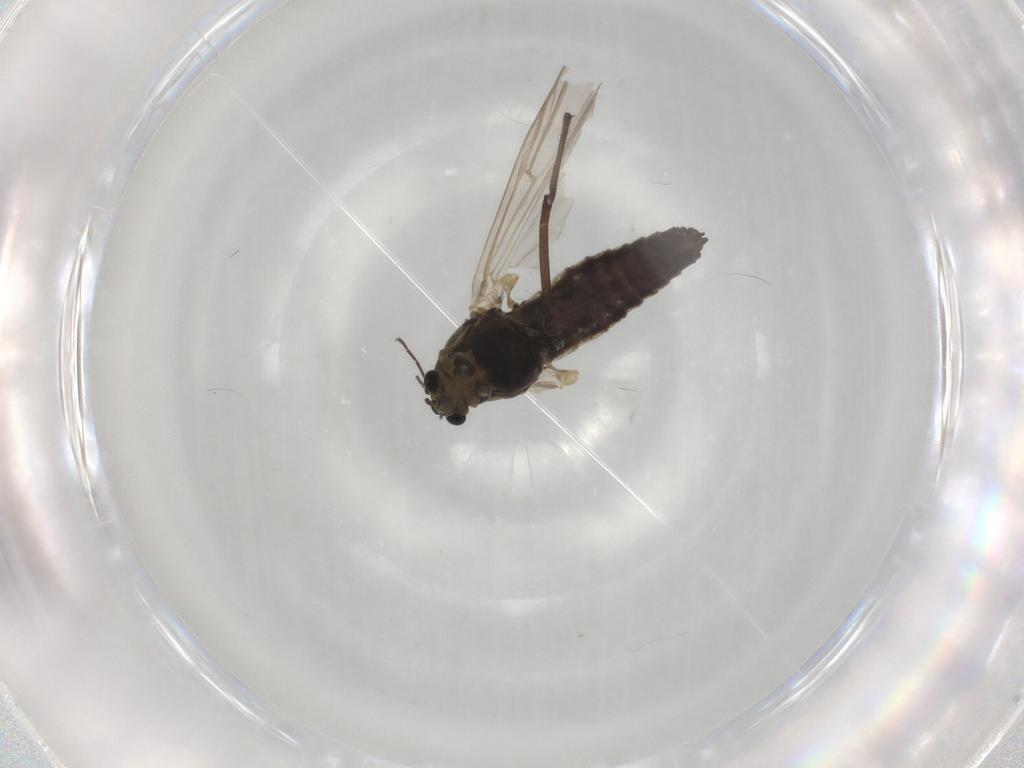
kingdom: Animalia
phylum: Arthropoda
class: Insecta
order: Diptera
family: Chironomidae
